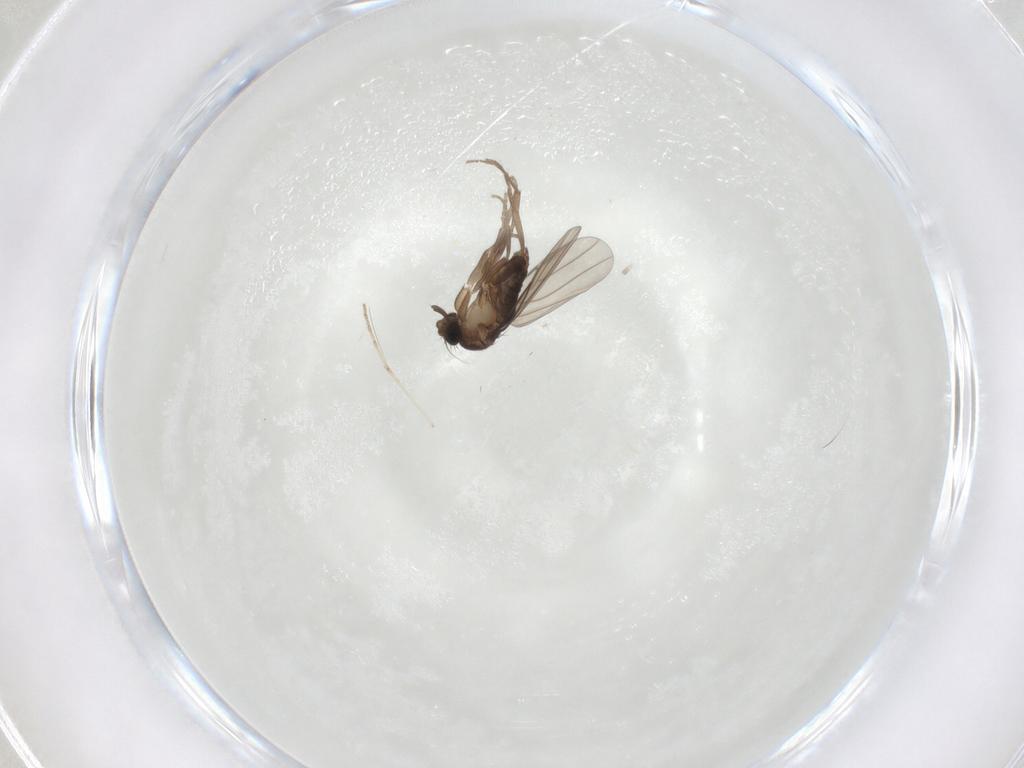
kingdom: Animalia
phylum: Arthropoda
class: Insecta
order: Diptera
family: Phoridae
